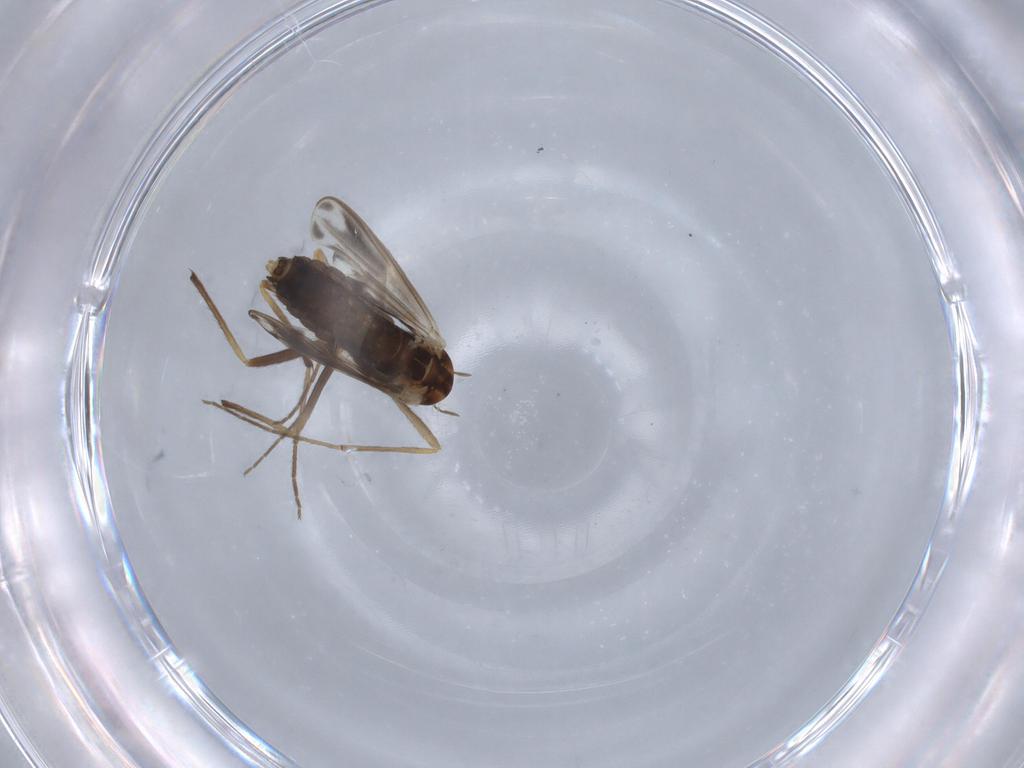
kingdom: Animalia
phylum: Arthropoda
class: Insecta
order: Diptera
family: Chironomidae
